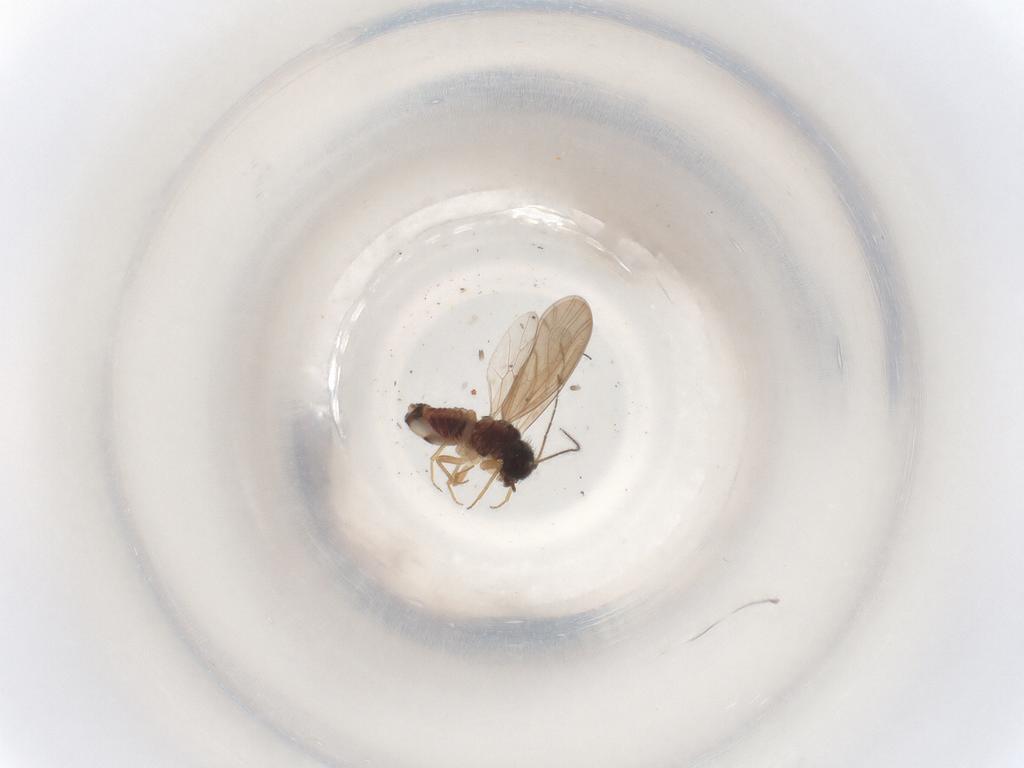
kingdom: Animalia
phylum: Arthropoda
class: Insecta
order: Psocodea
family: Ectopsocidae
